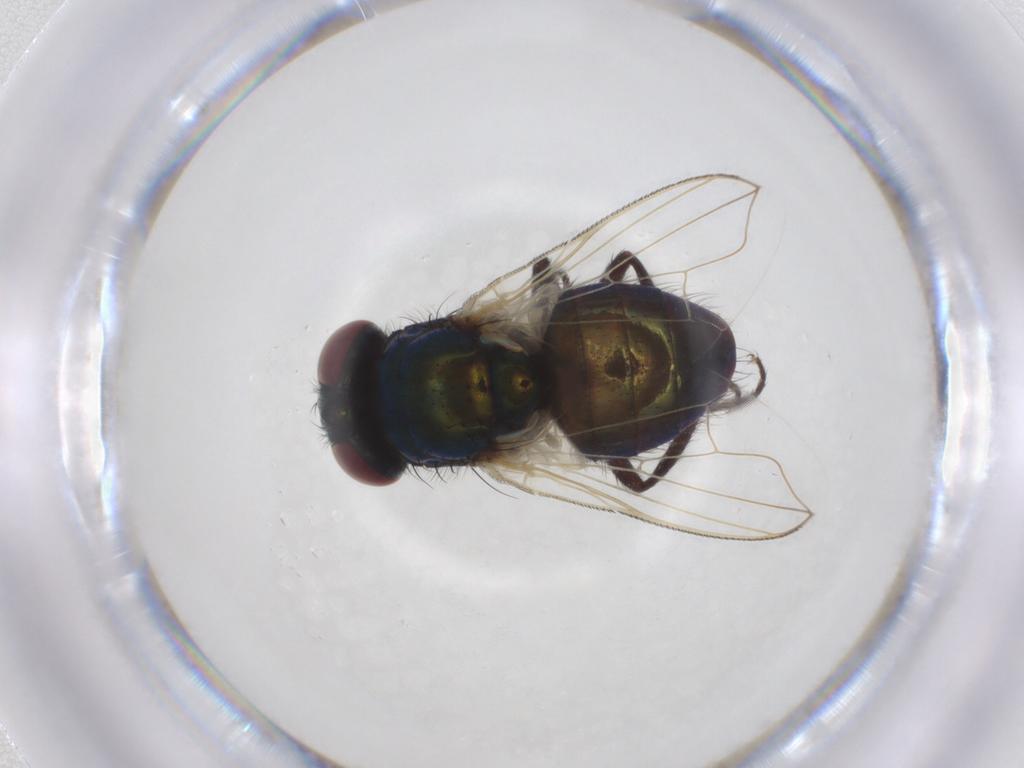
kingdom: Animalia
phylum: Arthropoda
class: Insecta
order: Diptera
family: Muscidae
